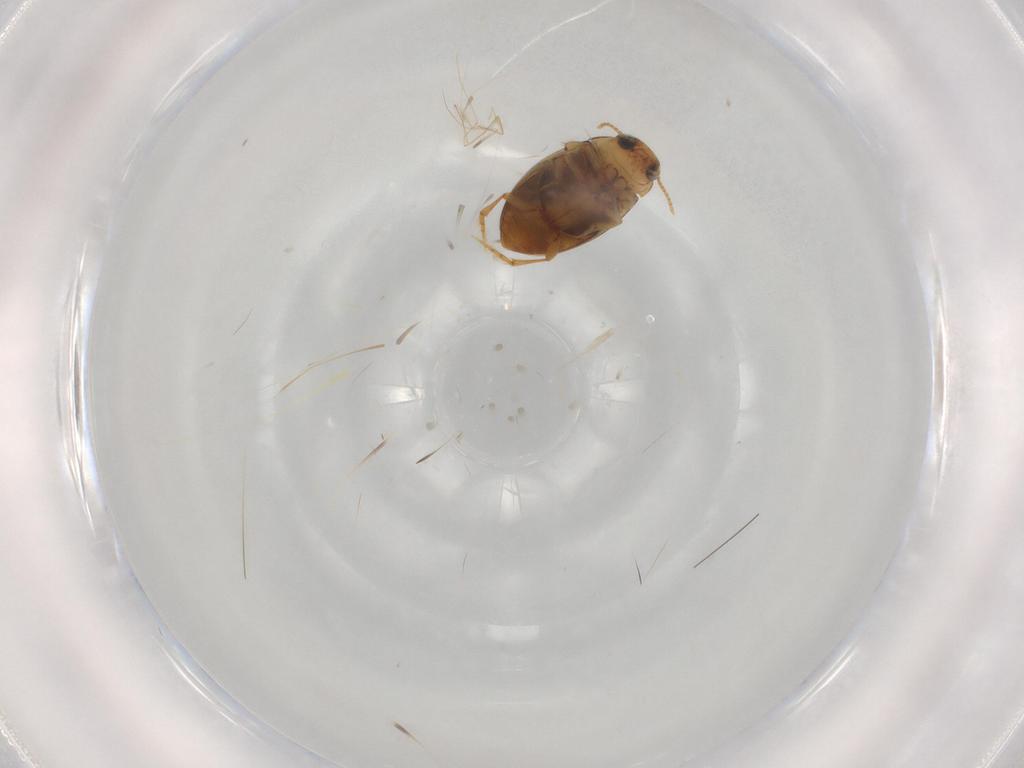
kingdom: Animalia
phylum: Arthropoda
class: Insecta
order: Coleoptera
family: Dytiscidae
